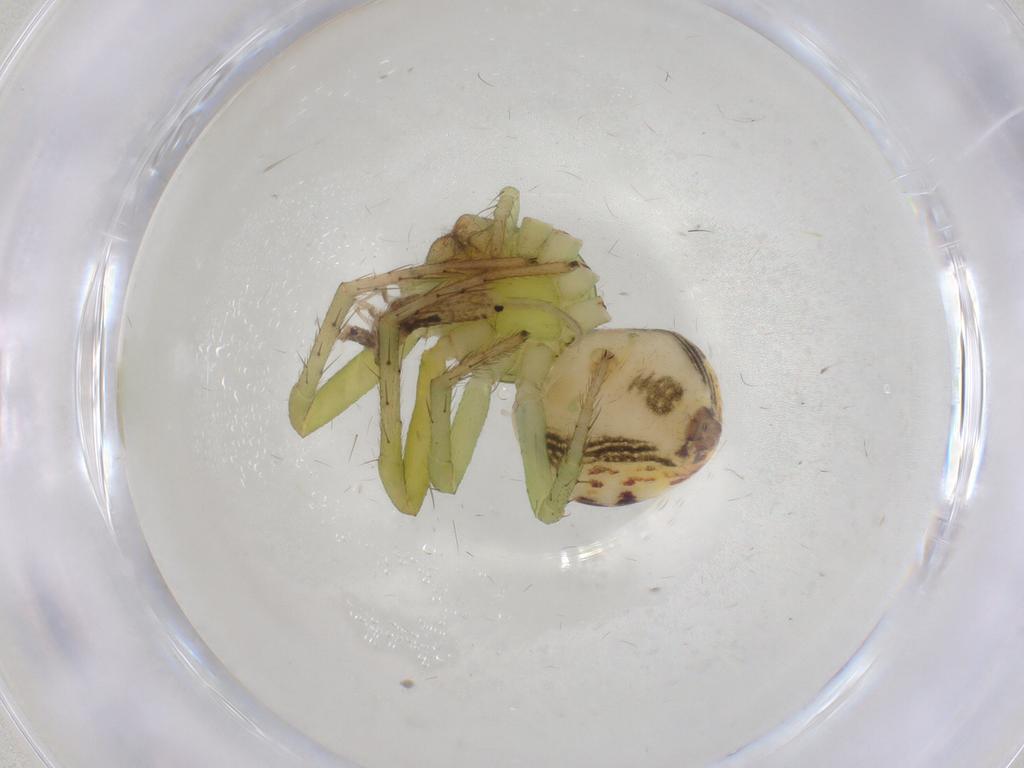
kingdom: Animalia
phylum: Arthropoda
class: Arachnida
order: Araneae
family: Thomisidae
